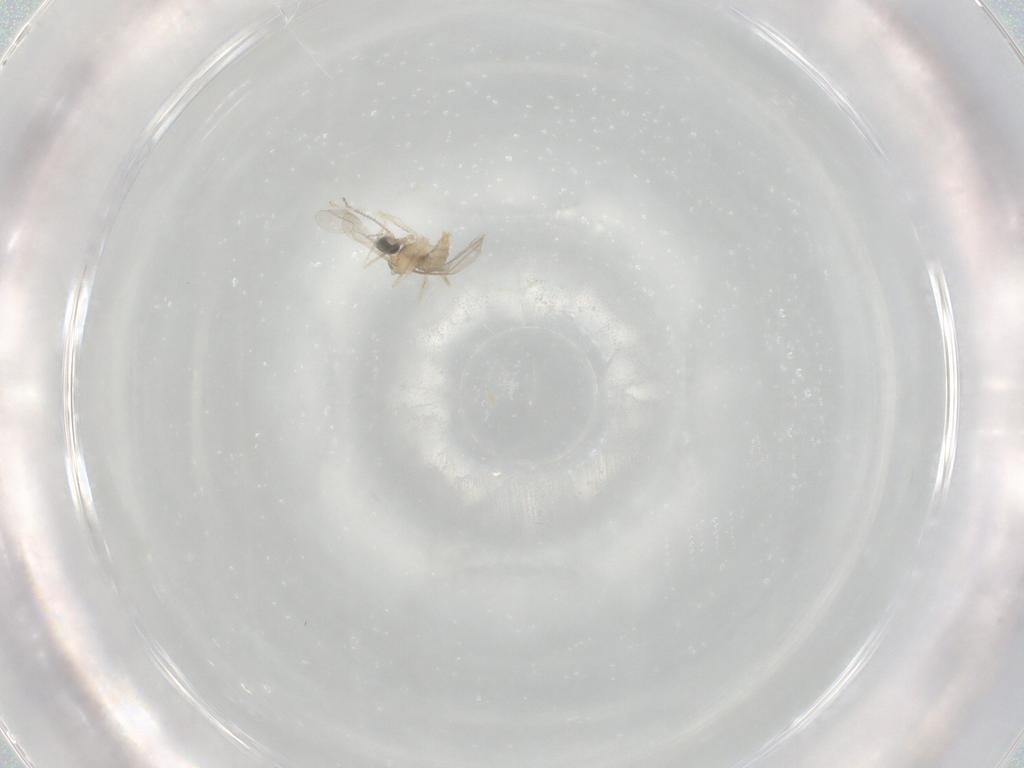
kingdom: Animalia
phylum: Arthropoda
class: Insecta
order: Diptera
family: Cecidomyiidae
